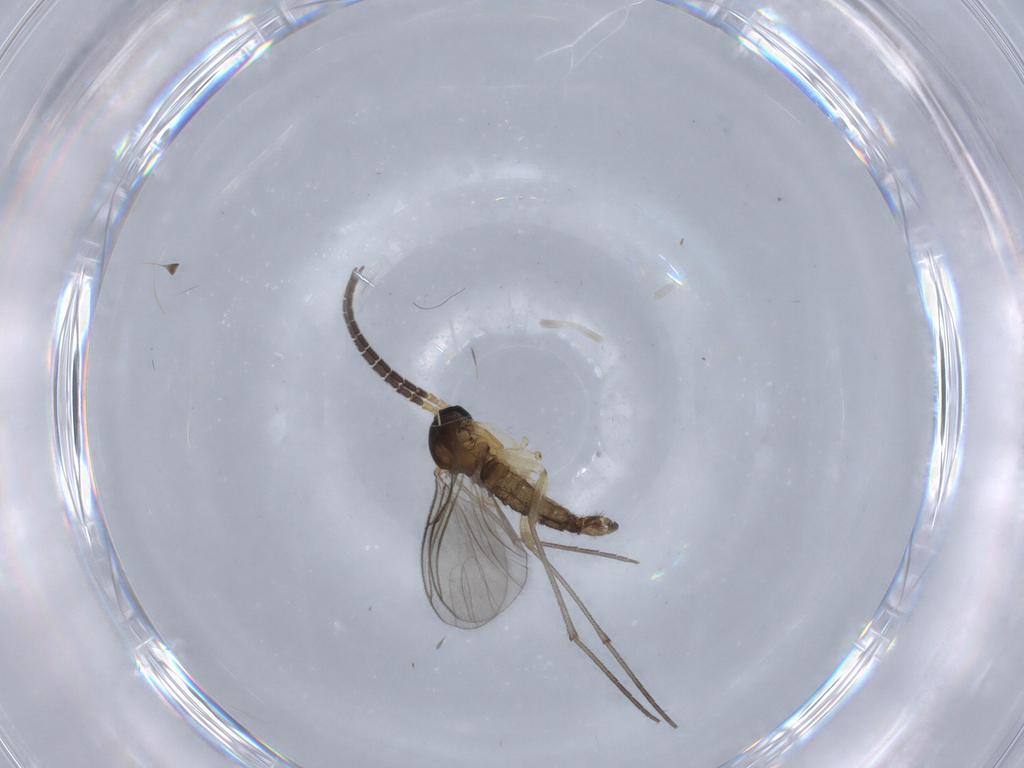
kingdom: Animalia
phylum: Arthropoda
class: Insecta
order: Diptera
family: Sciaridae
